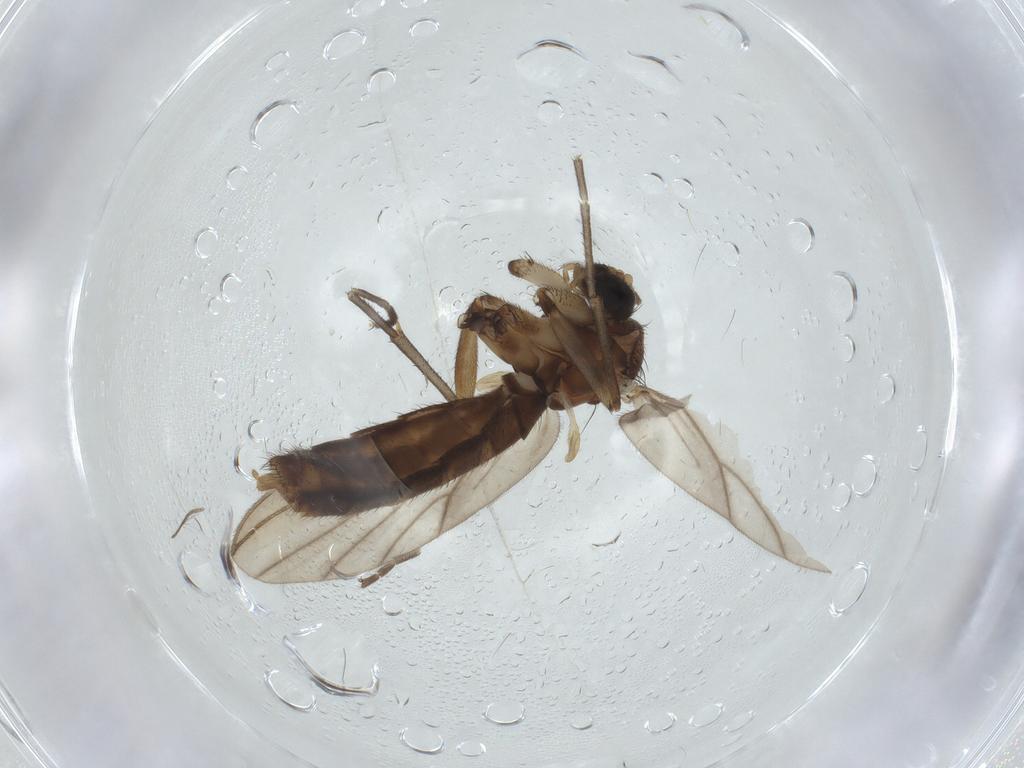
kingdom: Animalia
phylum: Arthropoda
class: Insecta
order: Diptera
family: Mycetophilidae
